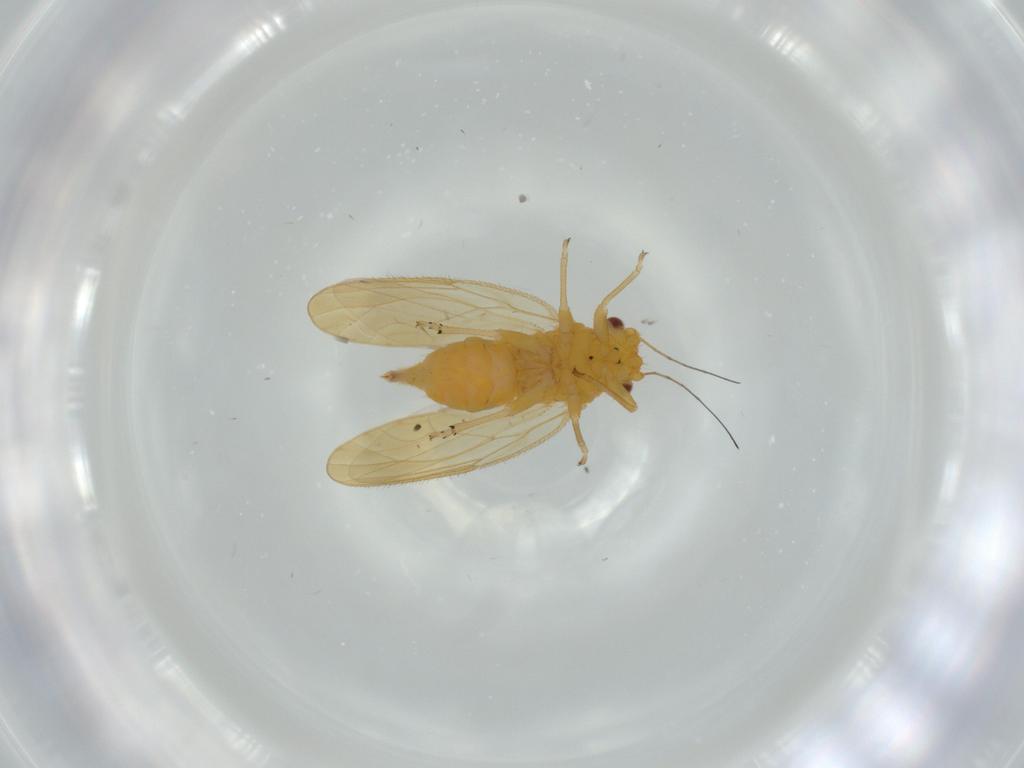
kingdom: Animalia
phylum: Arthropoda
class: Insecta
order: Hemiptera
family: Psyllidae
